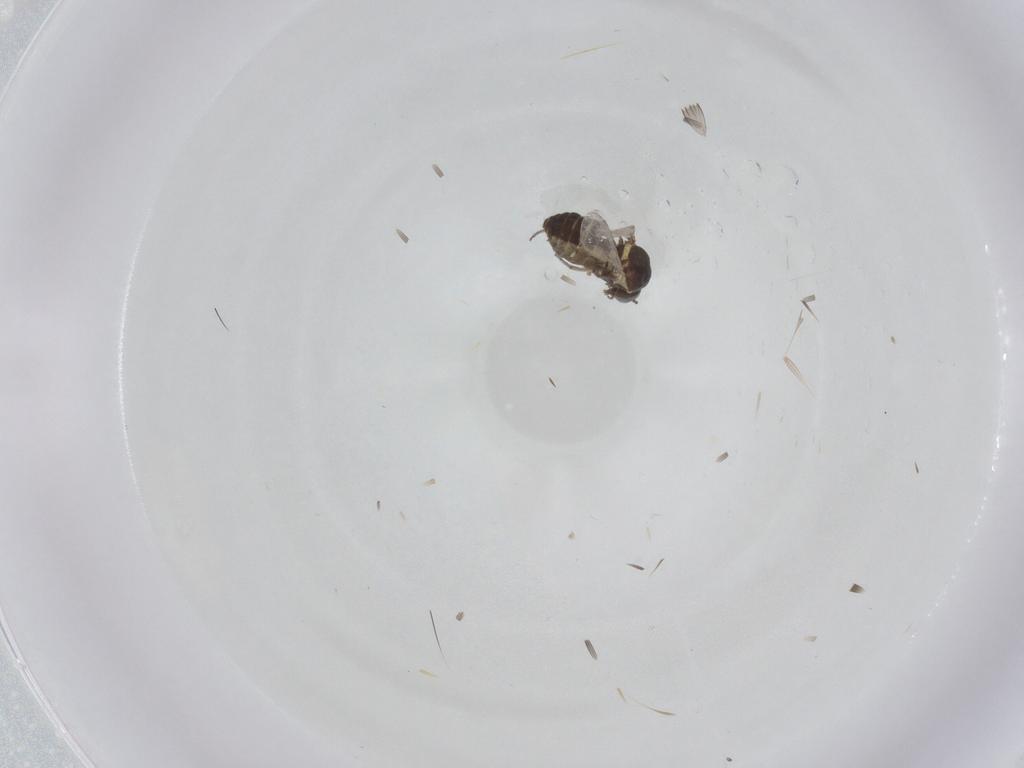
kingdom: Animalia
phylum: Arthropoda
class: Insecta
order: Diptera
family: Ceratopogonidae
